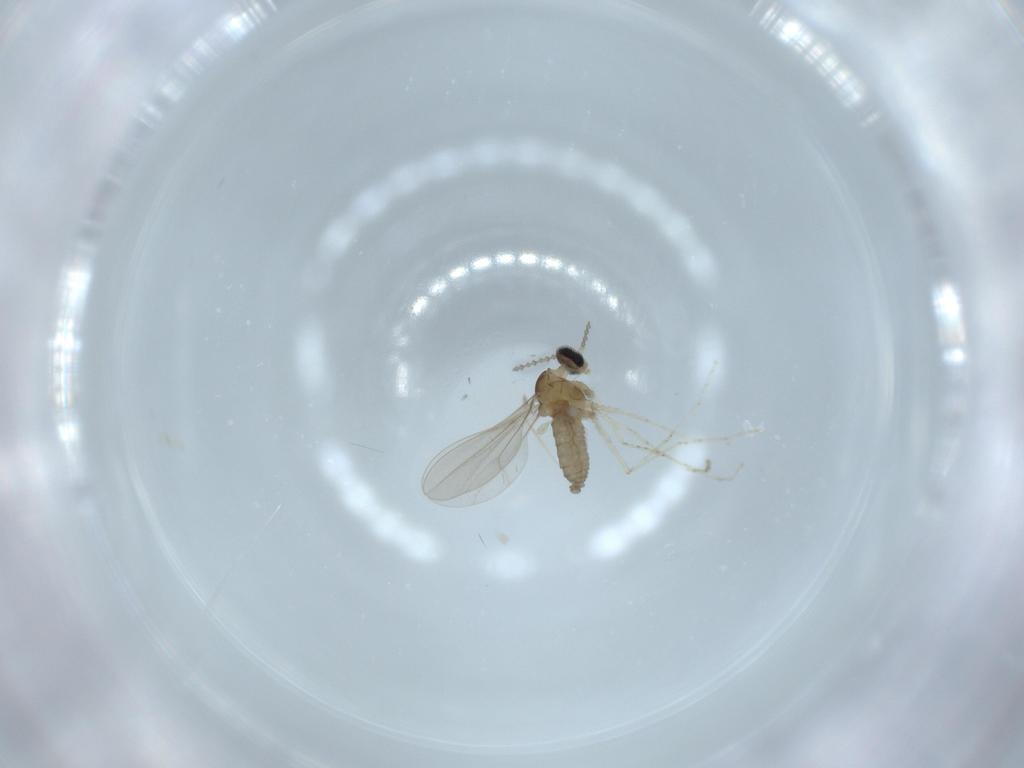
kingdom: Animalia
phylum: Arthropoda
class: Insecta
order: Diptera
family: Cecidomyiidae
